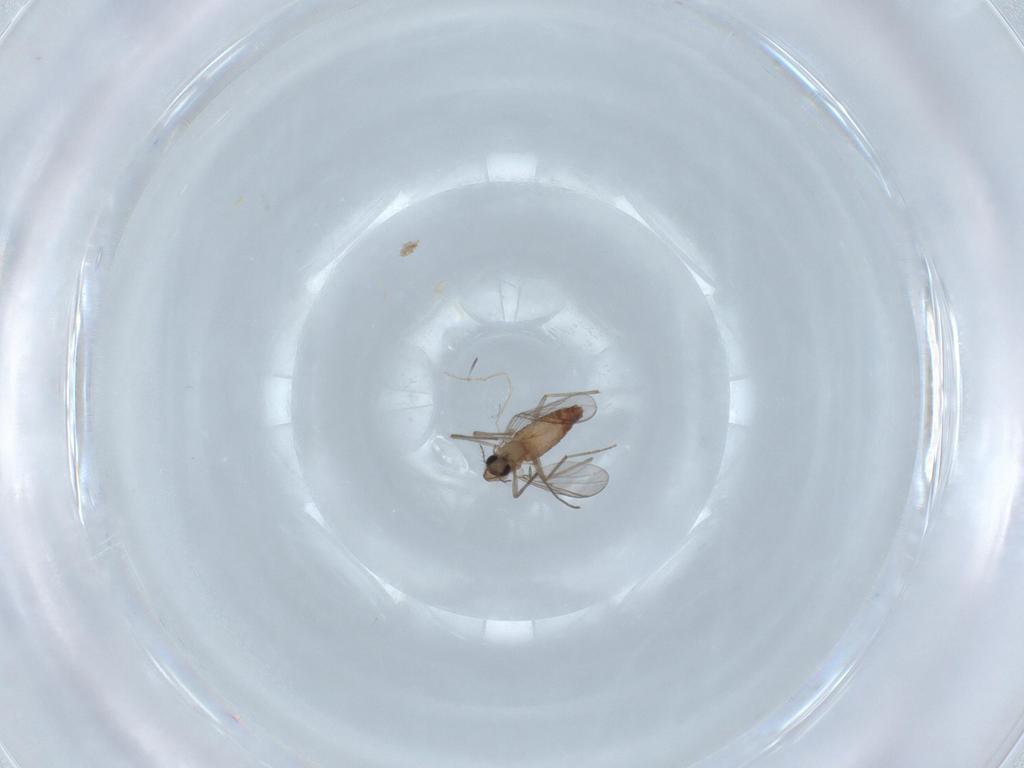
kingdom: Animalia
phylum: Arthropoda
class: Insecta
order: Diptera
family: Chironomidae
